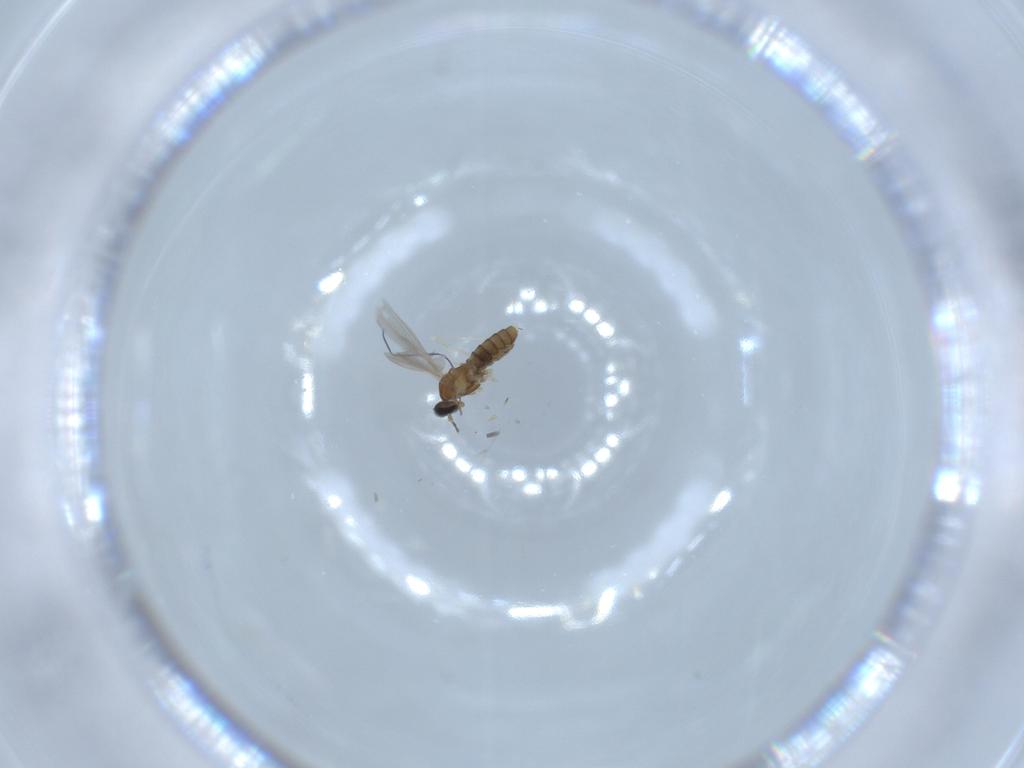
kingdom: Animalia
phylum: Arthropoda
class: Insecta
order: Diptera
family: Cecidomyiidae
